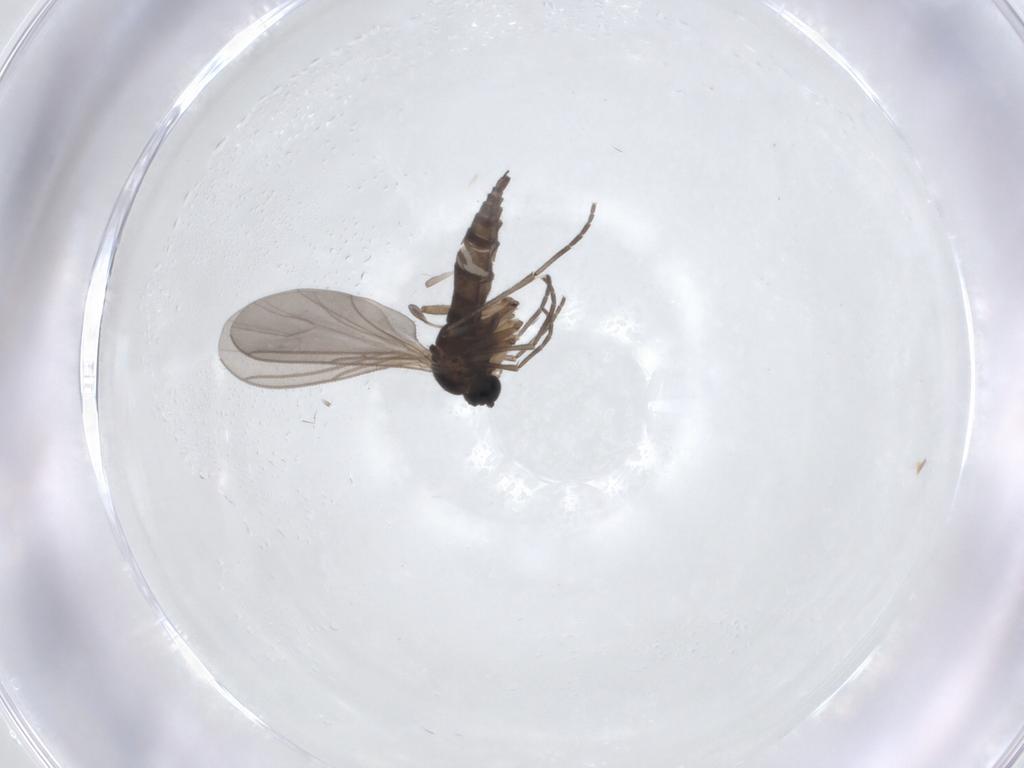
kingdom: Animalia
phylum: Arthropoda
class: Insecta
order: Diptera
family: Sciaridae
